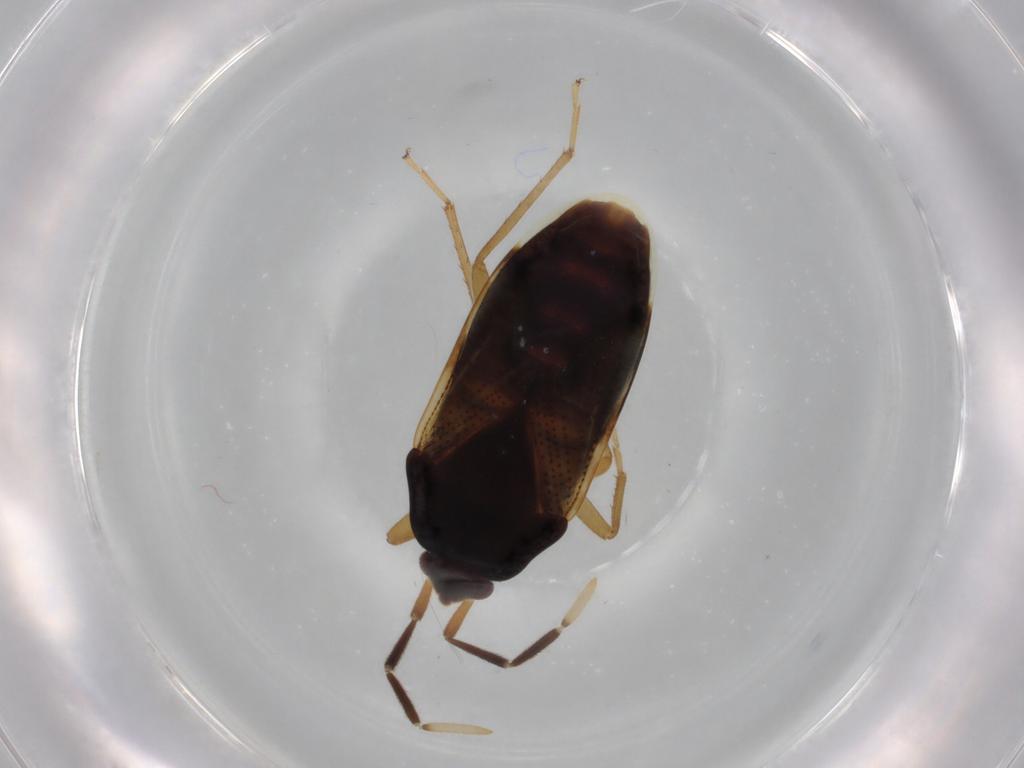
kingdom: Animalia
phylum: Arthropoda
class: Insecta
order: Hemiptera
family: Rhyparochromidae
